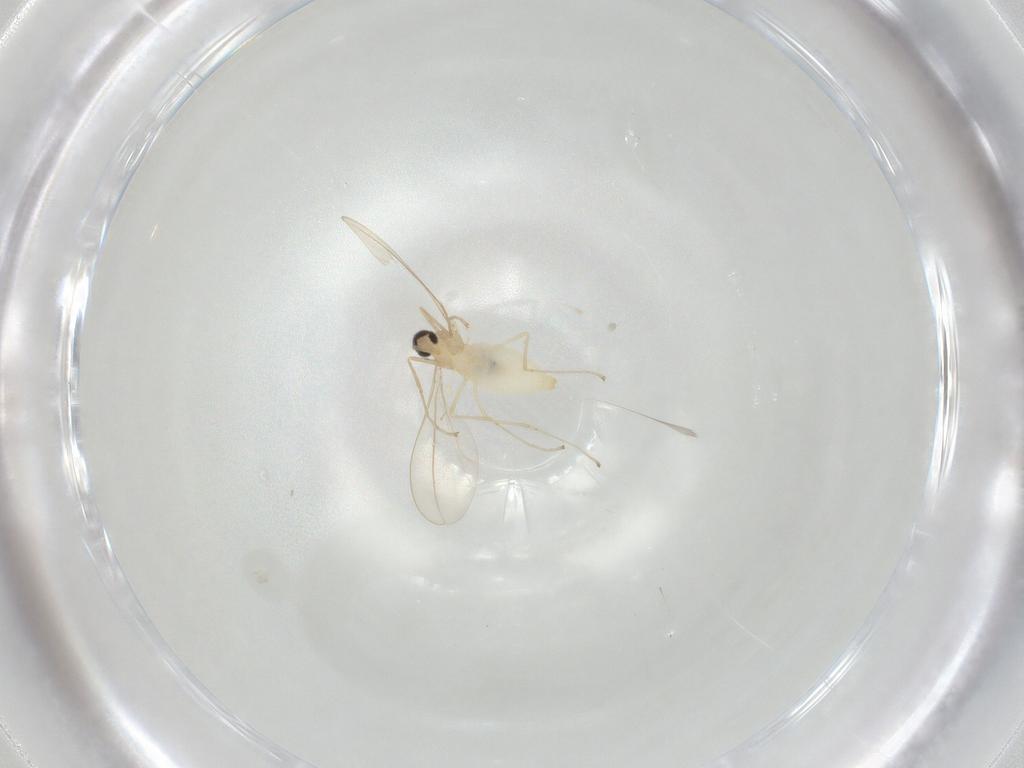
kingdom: Animalia
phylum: Arthropoda
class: Insecta
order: Diptera
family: Cecidomyiidae
